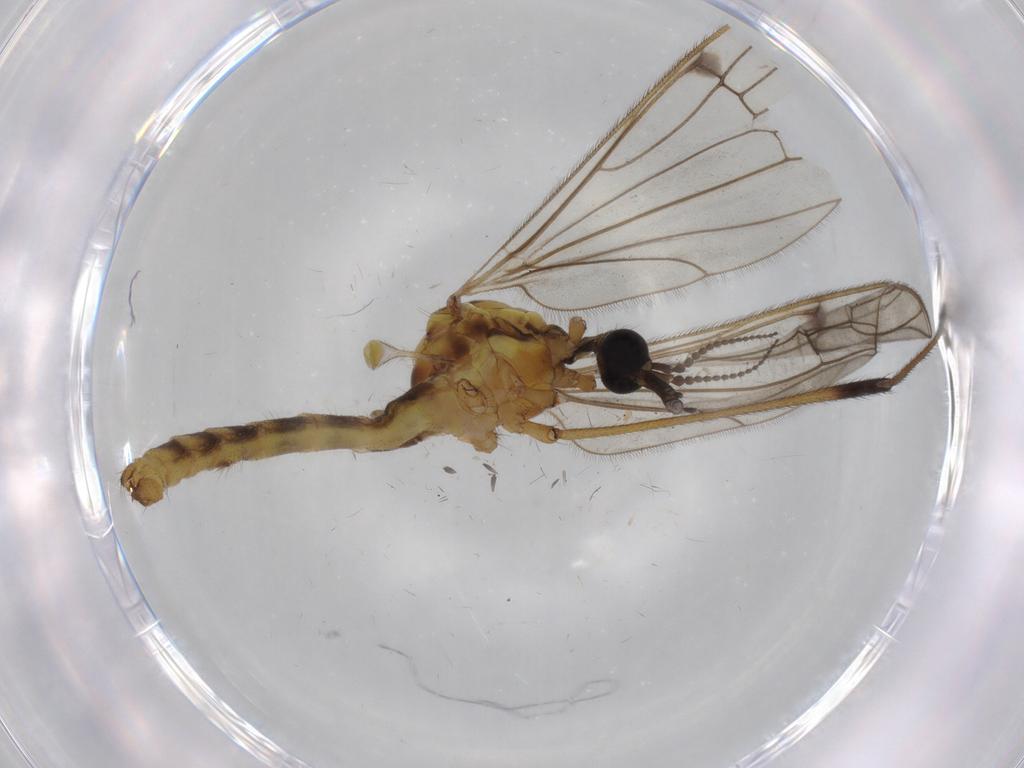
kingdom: Animalia
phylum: Arthropoda
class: Insecta
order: Diptera
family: Limoniidae
